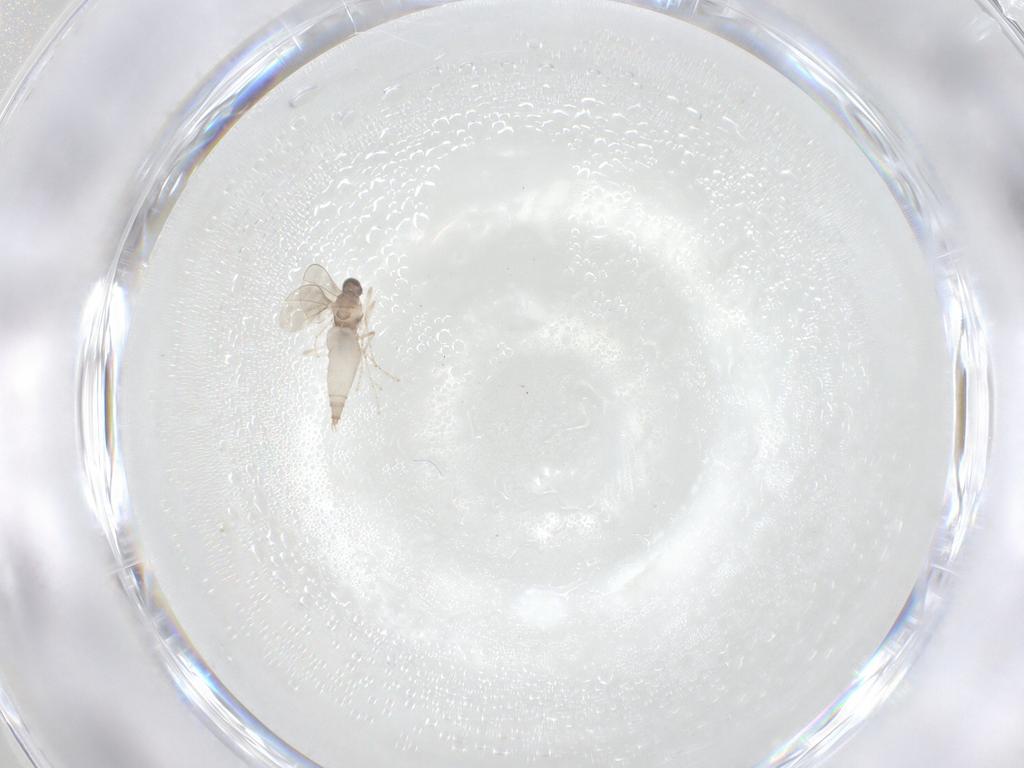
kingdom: Animalia
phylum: Arthropoda
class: Insecta
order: Diptera
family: Cecidomyiidae
